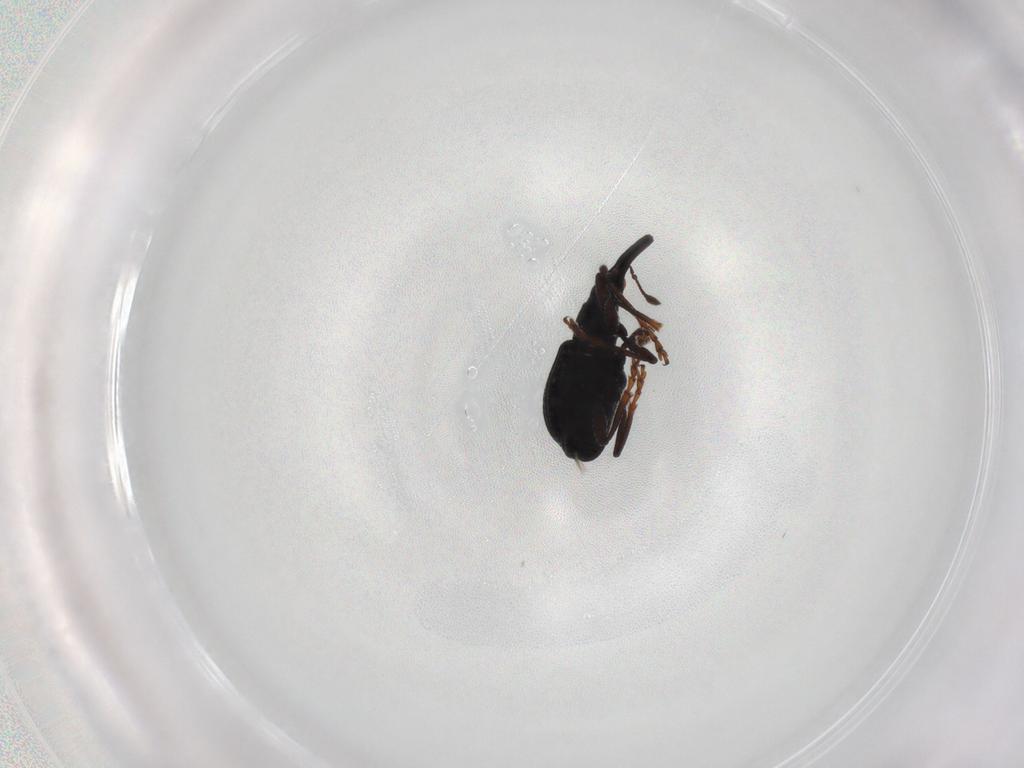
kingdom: Animalia
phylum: Arthropoda
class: Insecta
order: Coleoptera
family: Brentidae
